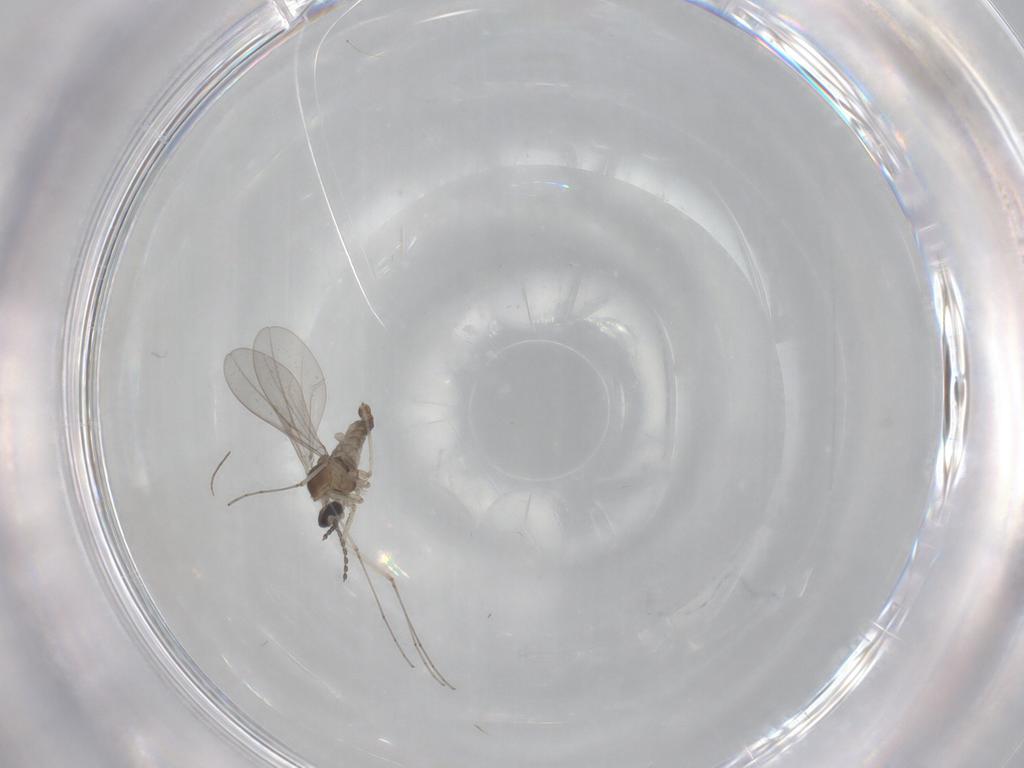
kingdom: Animalia
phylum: Arthropoda
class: Insecta
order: Diptera
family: Cecidomyiidae
